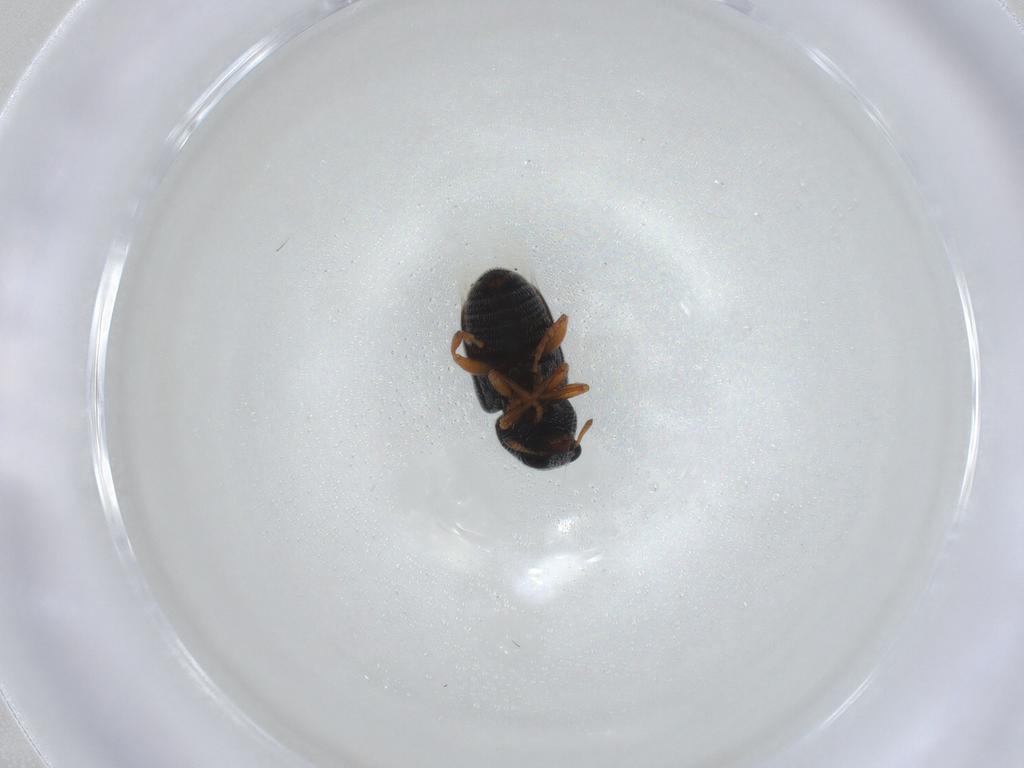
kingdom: Animalia
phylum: Arthropoda
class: Insecta
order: Coleoptera
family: Anthribidae
